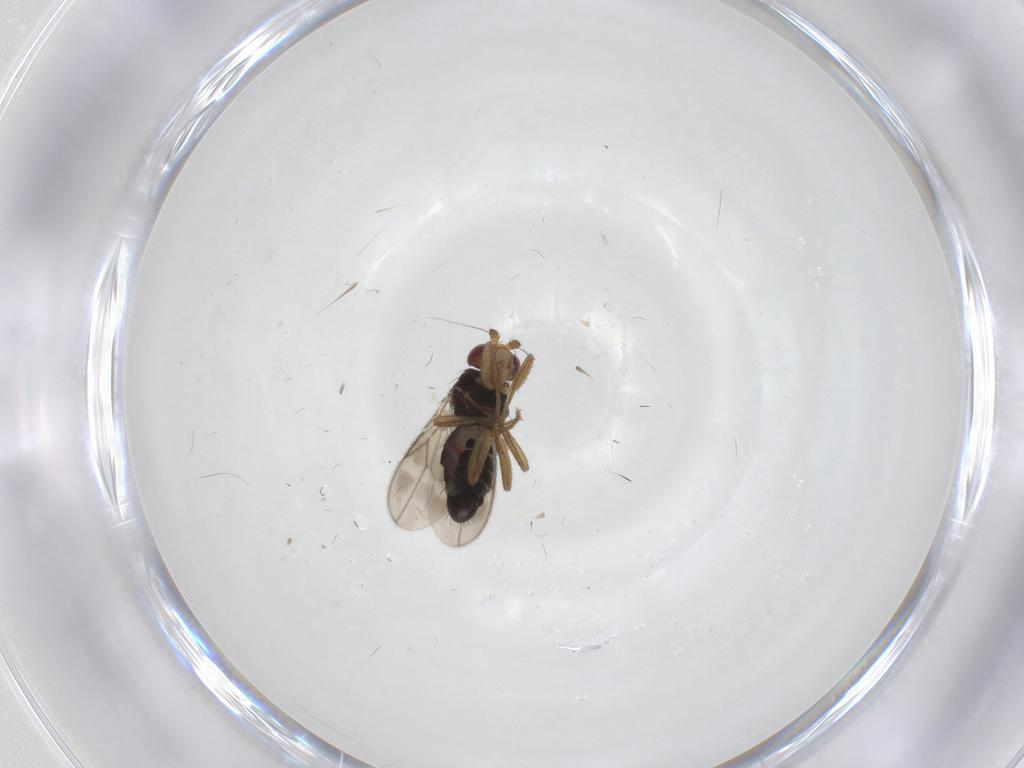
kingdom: Animalia
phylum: Arthropoda
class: Insecta
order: Diptera
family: Sphaeroceridae
